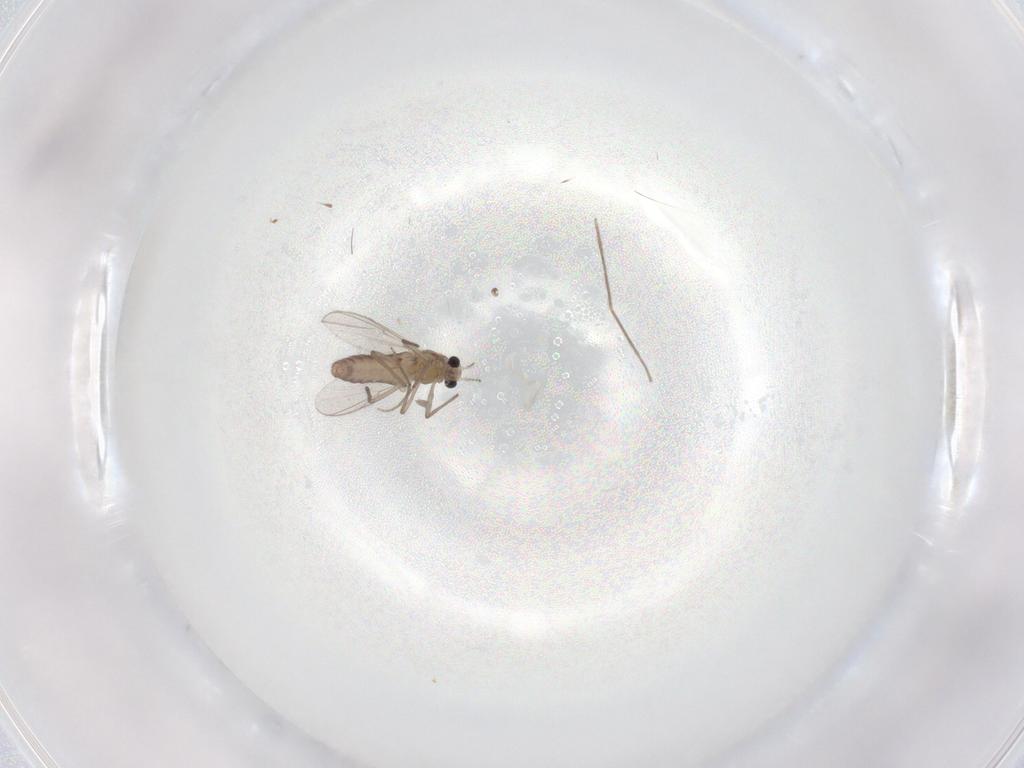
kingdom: Animalia
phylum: Arthropoda
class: Insecta
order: Diptera
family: Chironomidae
